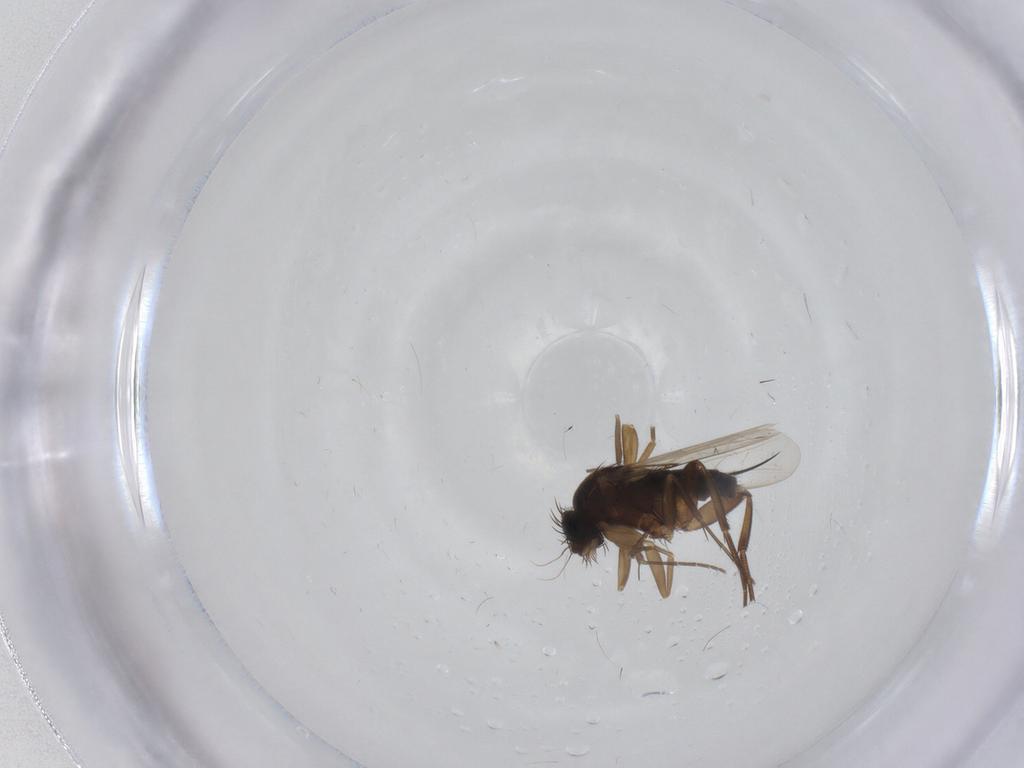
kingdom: Animalia
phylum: Arthropoda
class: Insecta
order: Diptera
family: Phoridae
